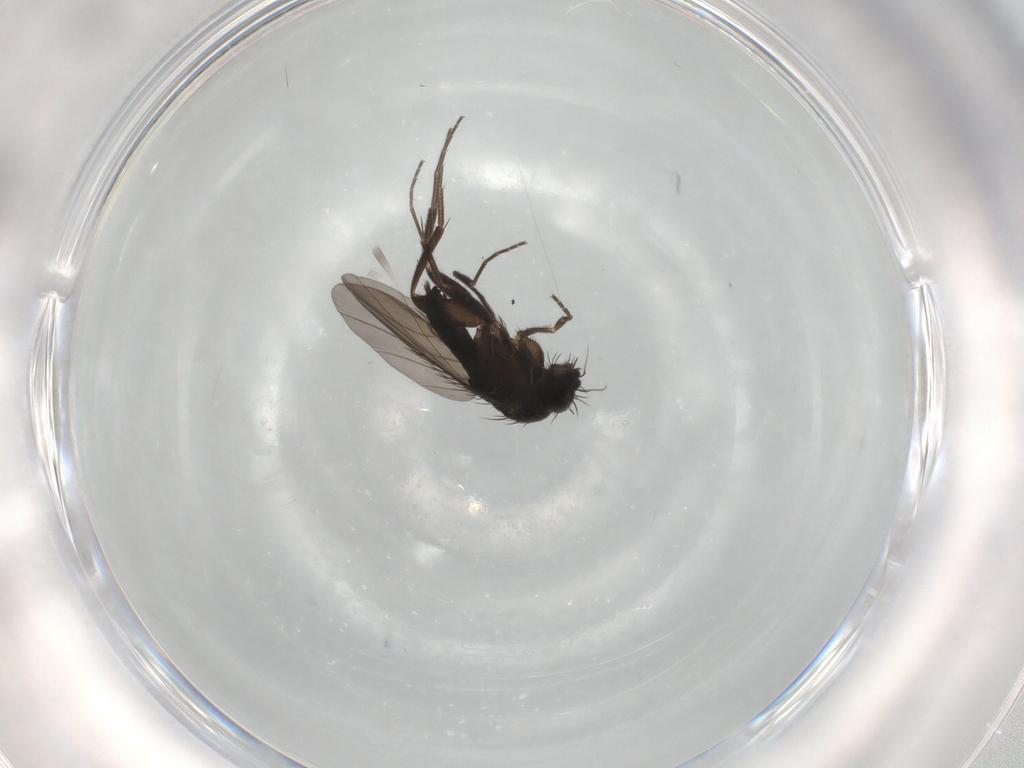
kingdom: Animalia
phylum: Arthropoda
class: Insecta
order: Diptera
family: Phoridae
